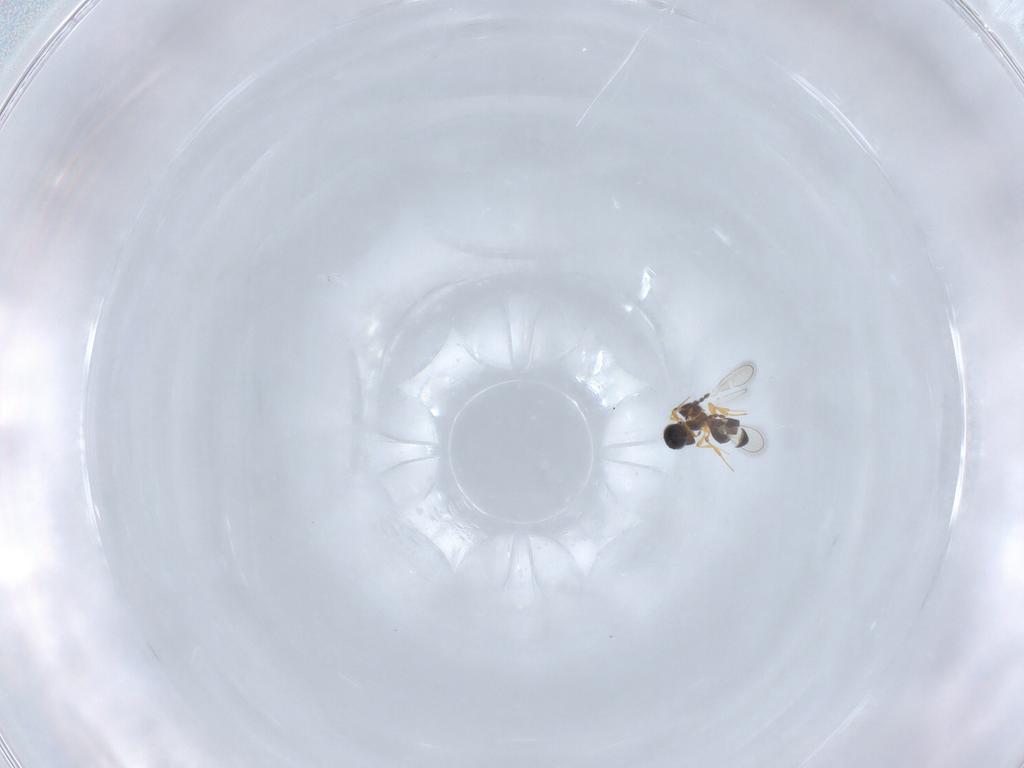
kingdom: Animalia
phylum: Arthropoda
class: Insecta
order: Hymenoptera
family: Platygastridae
